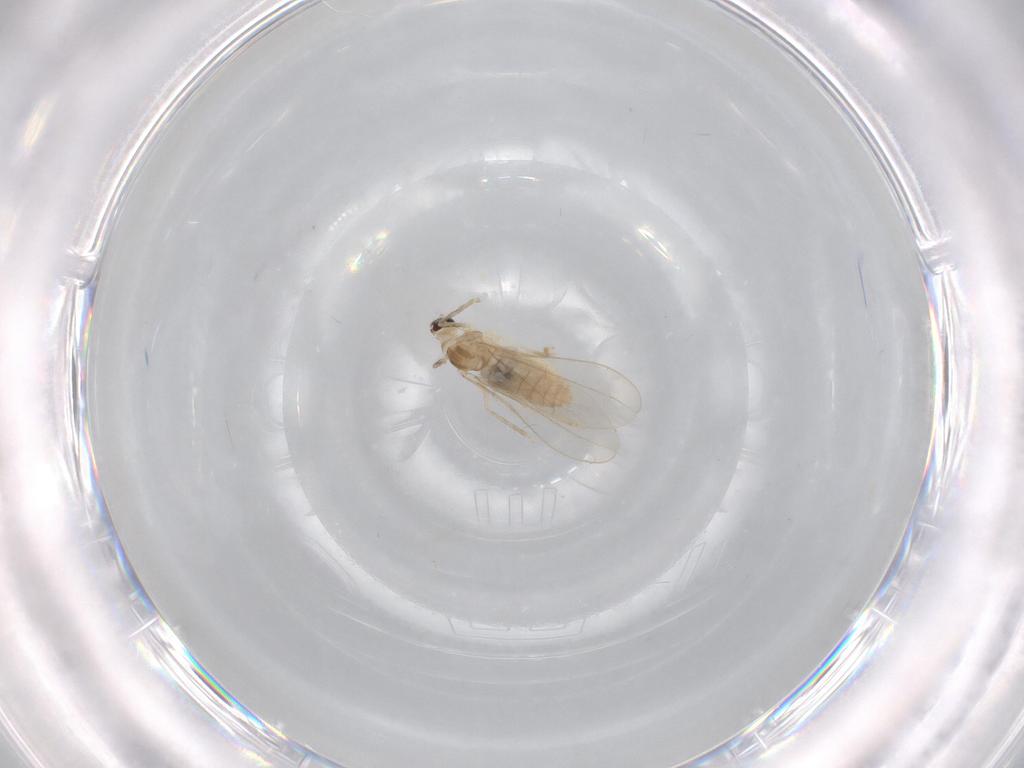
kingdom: Animalia
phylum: Arthropoda
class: Insecta
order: Diptera
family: Cecidomyiidae
